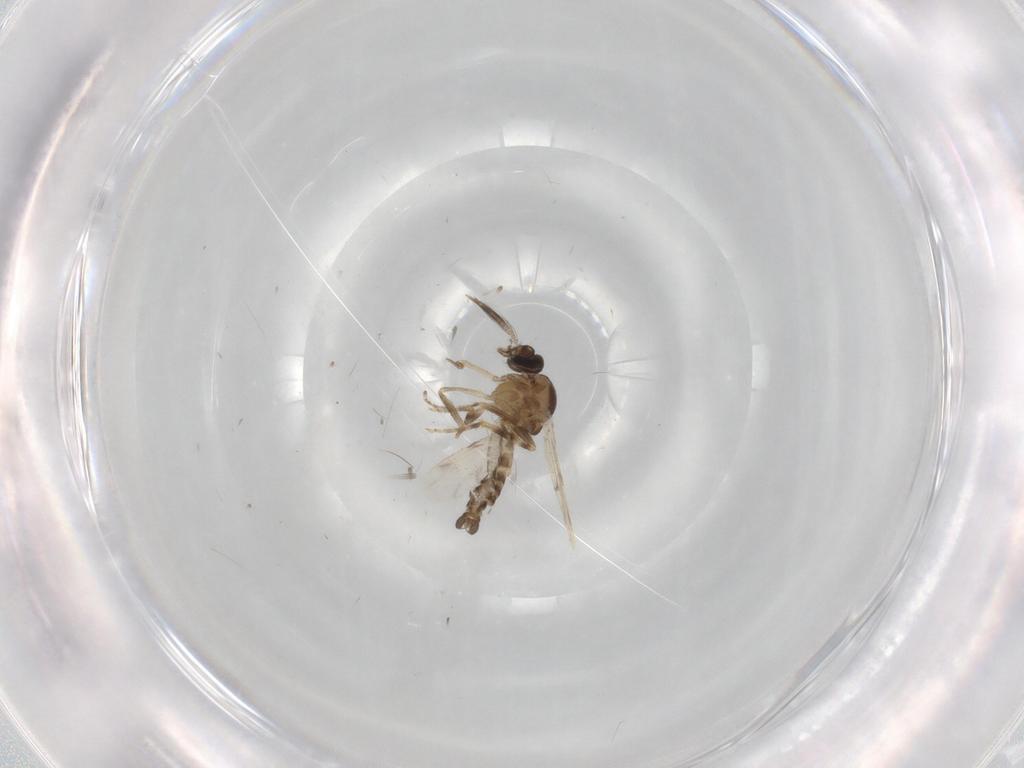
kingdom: Animalia
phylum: Arthropoda
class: Insecta
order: Diptera
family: Ceratopogonidae
